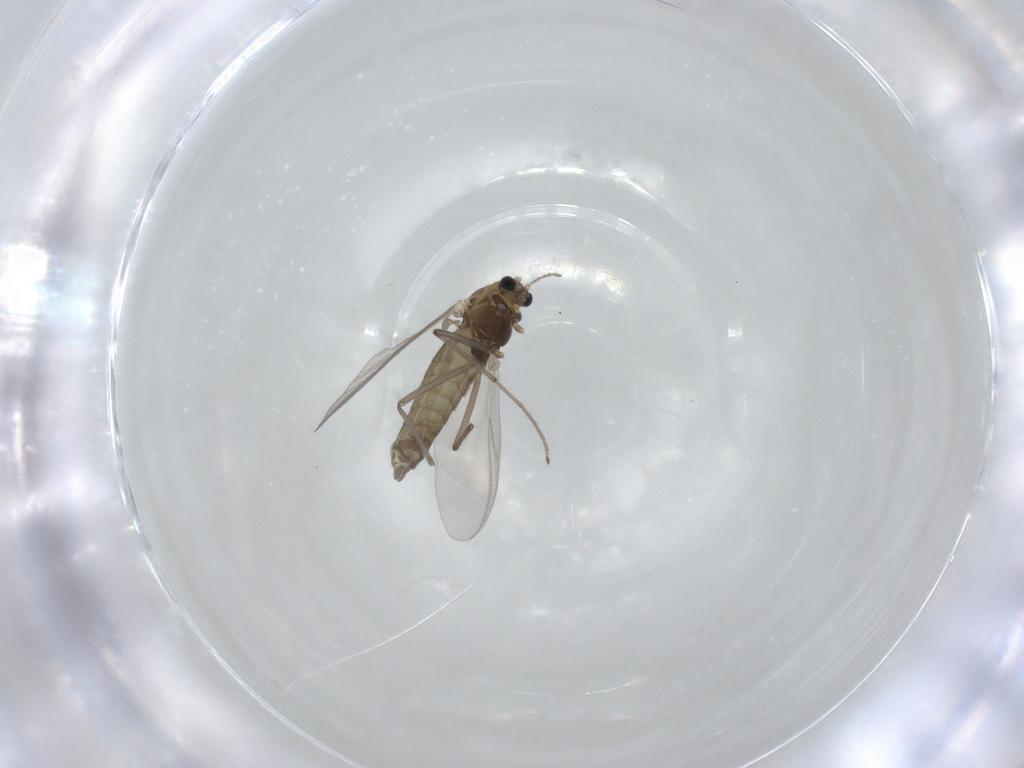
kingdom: Animalia
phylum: Arthropoda
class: Insecta
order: Diptera
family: Chironomidae
